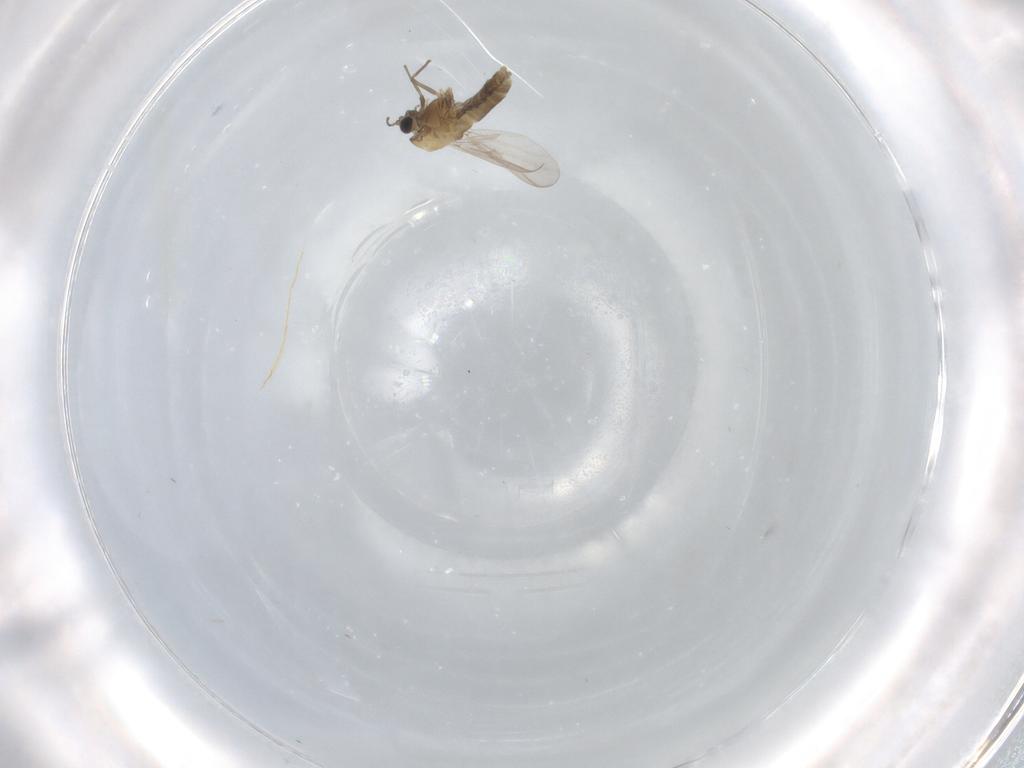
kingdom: Animalia
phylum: Arthropoda
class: Insecta
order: Diptera
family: Chironomidae
